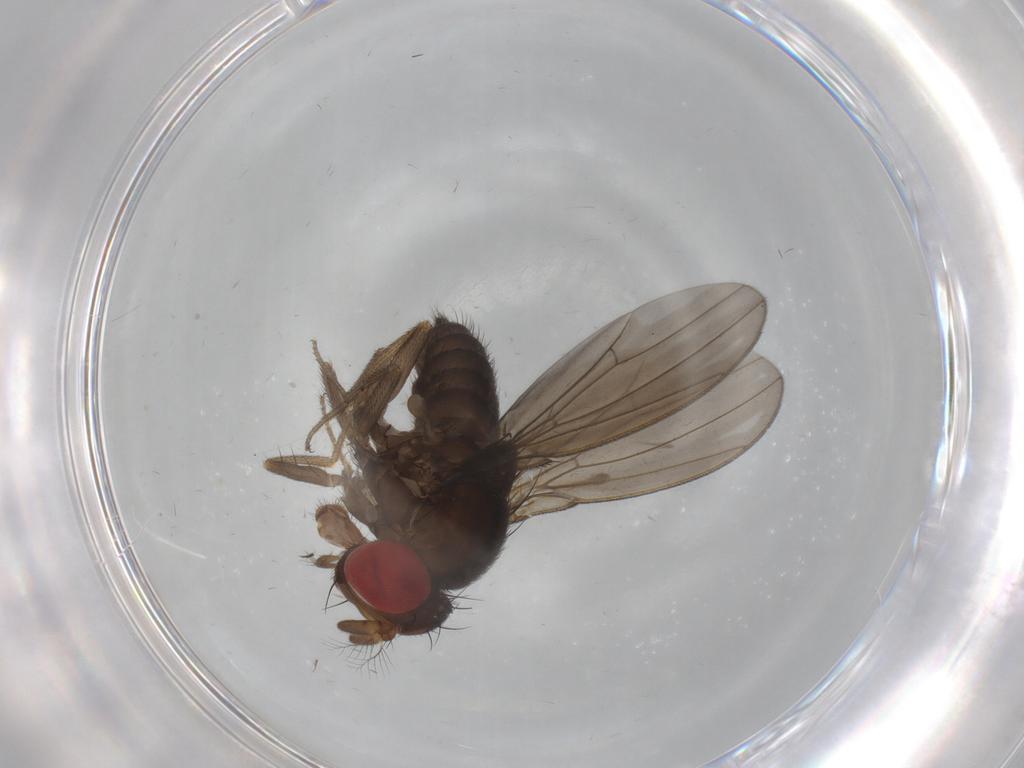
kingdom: Animalia
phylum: Arthropoda
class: Insecta
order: Diptera
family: Drosophilidae
